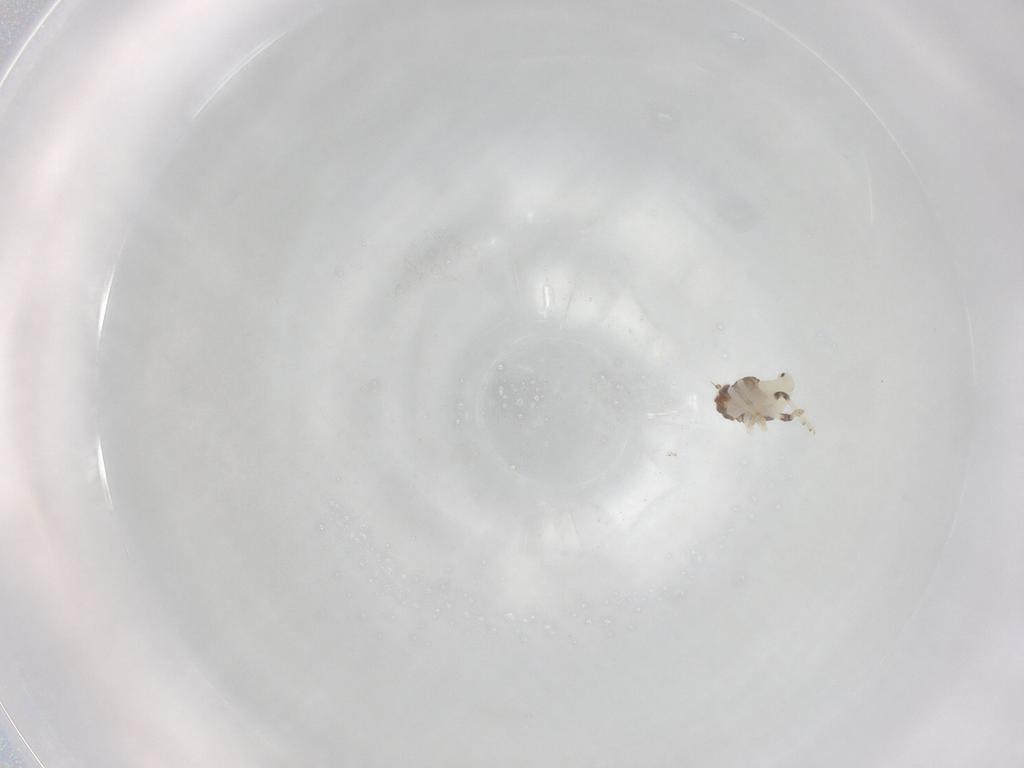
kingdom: Animalia
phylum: Arthropoda
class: Insecta
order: Hemiptera
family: Nogodinidae
